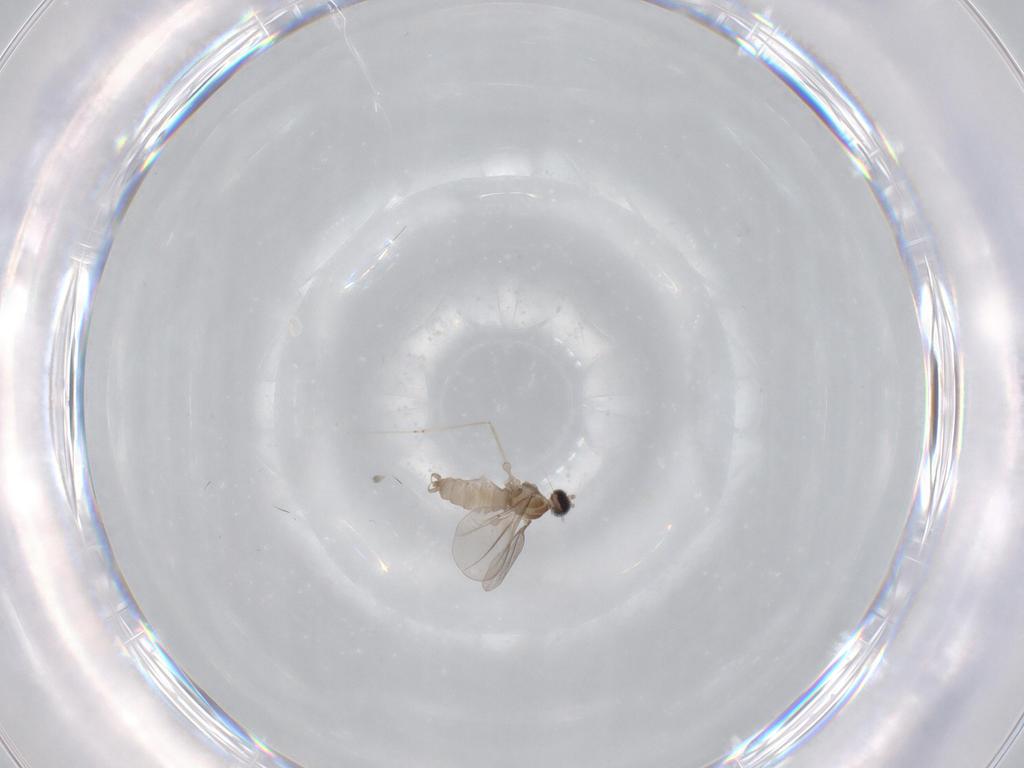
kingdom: Animalia
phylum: Arthropoda
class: Insecta
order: Diptera
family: Cecidomyiidae
